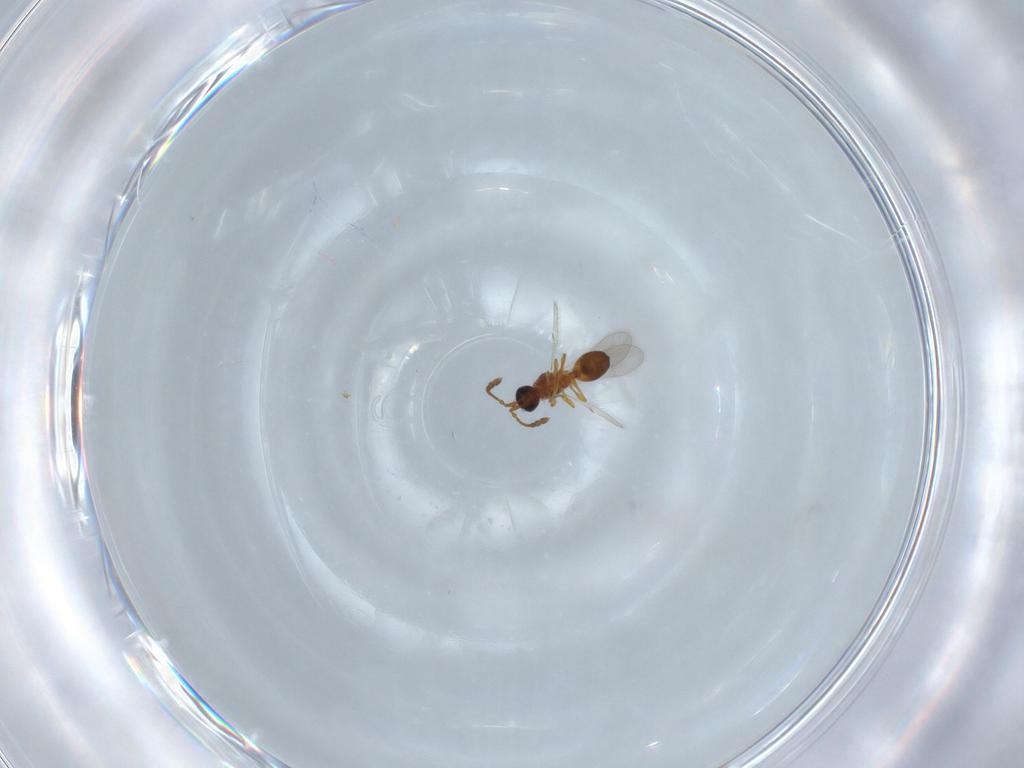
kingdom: Animalia
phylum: Arthropoda
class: Insecta
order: Hymenoptera
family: Diapriidae
